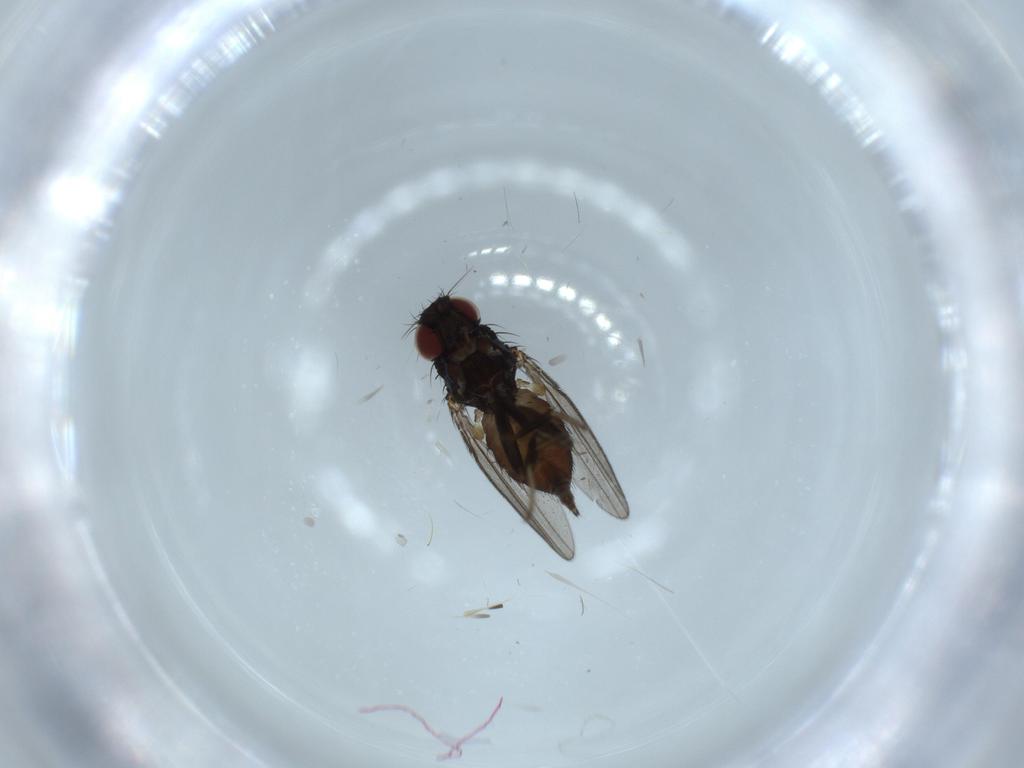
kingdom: Animalia
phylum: Arthropoda
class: Insecta
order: Diptera
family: Milichiidae
